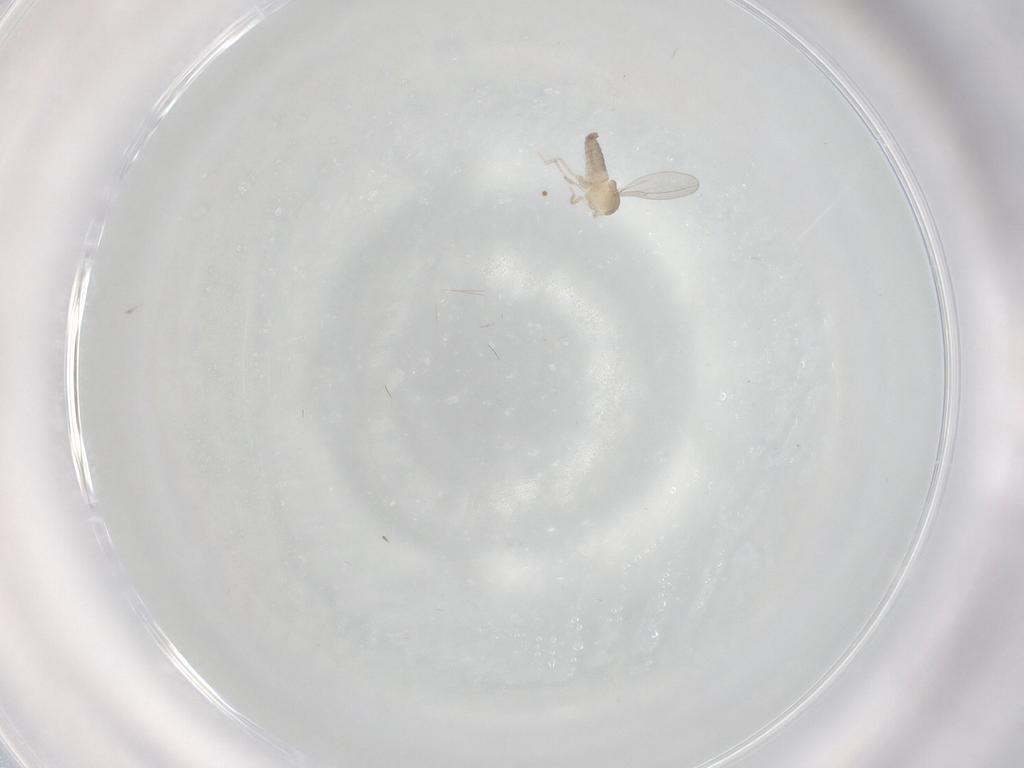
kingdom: Animalia
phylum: Arthropoda
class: Insecta
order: Diptera
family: Cecidomyiidae
